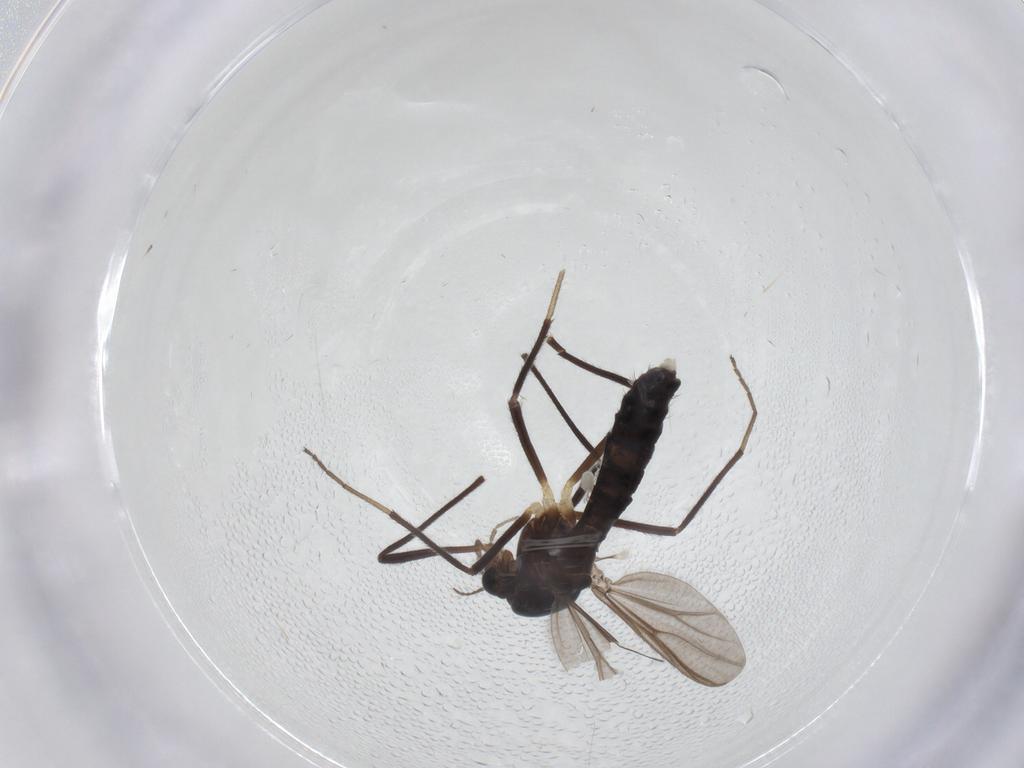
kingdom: Animalia
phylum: Arthropoda
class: Insecta
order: Diptera
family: Chironomidae
